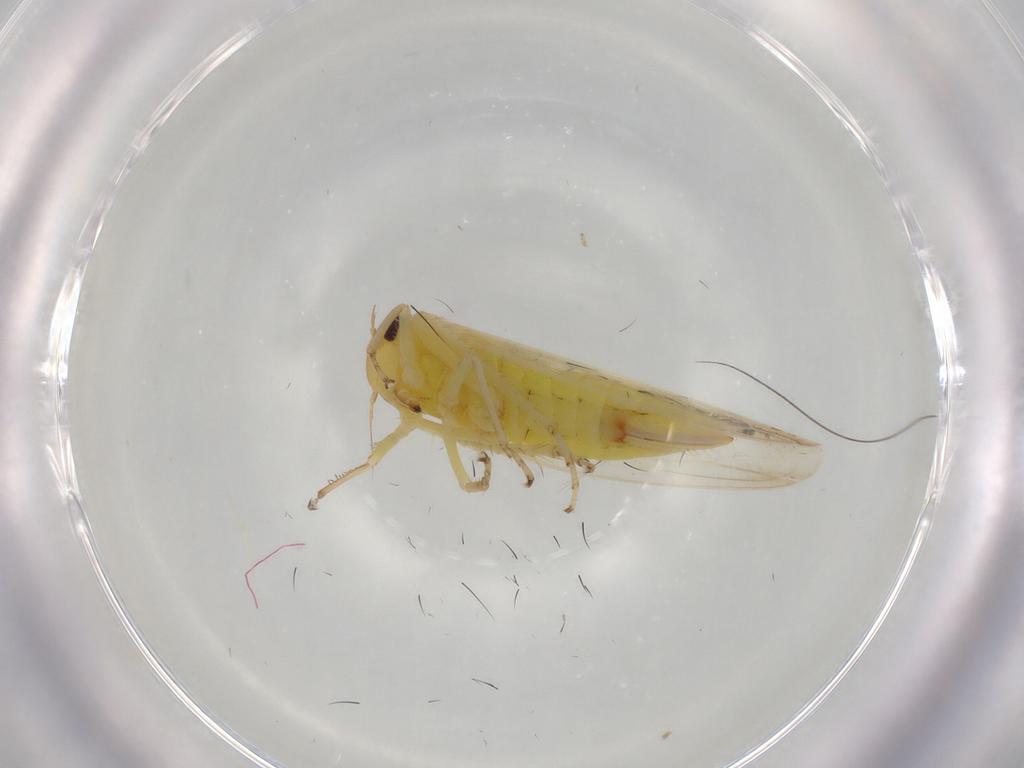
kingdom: Animalia
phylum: Arthropoda
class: Insecta
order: Hemiptera
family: Cicadellidae
